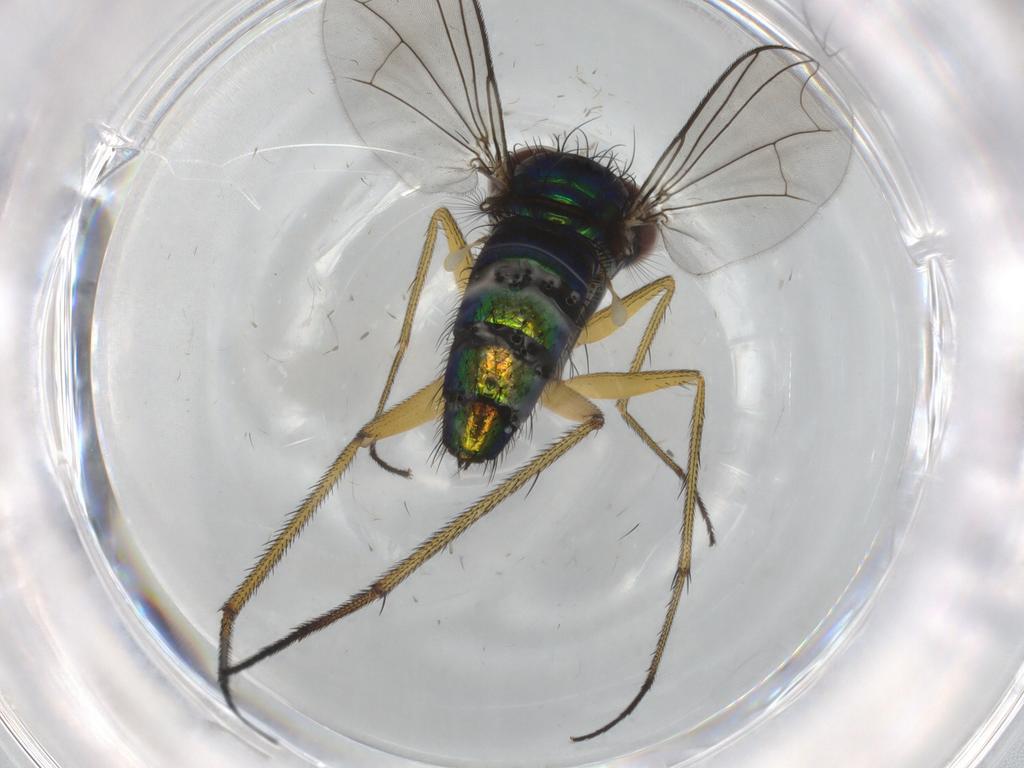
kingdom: Animalia
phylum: Arthropoda
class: Insecta
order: Diptera
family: Dolichopodidae
